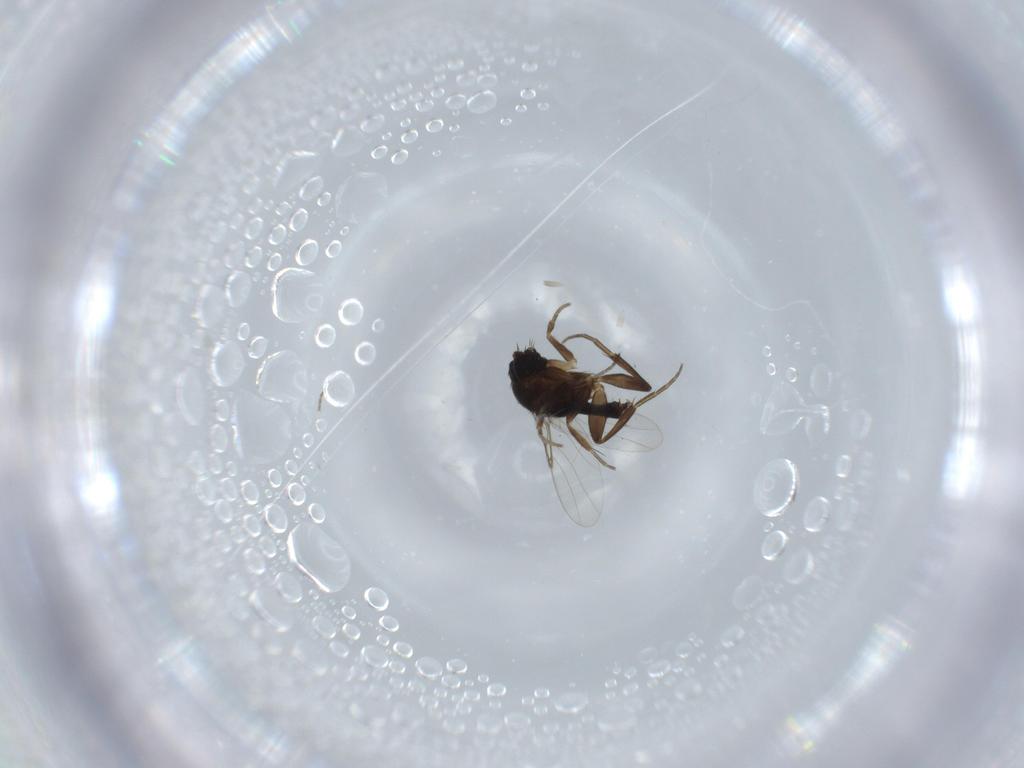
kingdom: Animalia
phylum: Arthropoda
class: Insecta
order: Diptera
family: Phoridae
